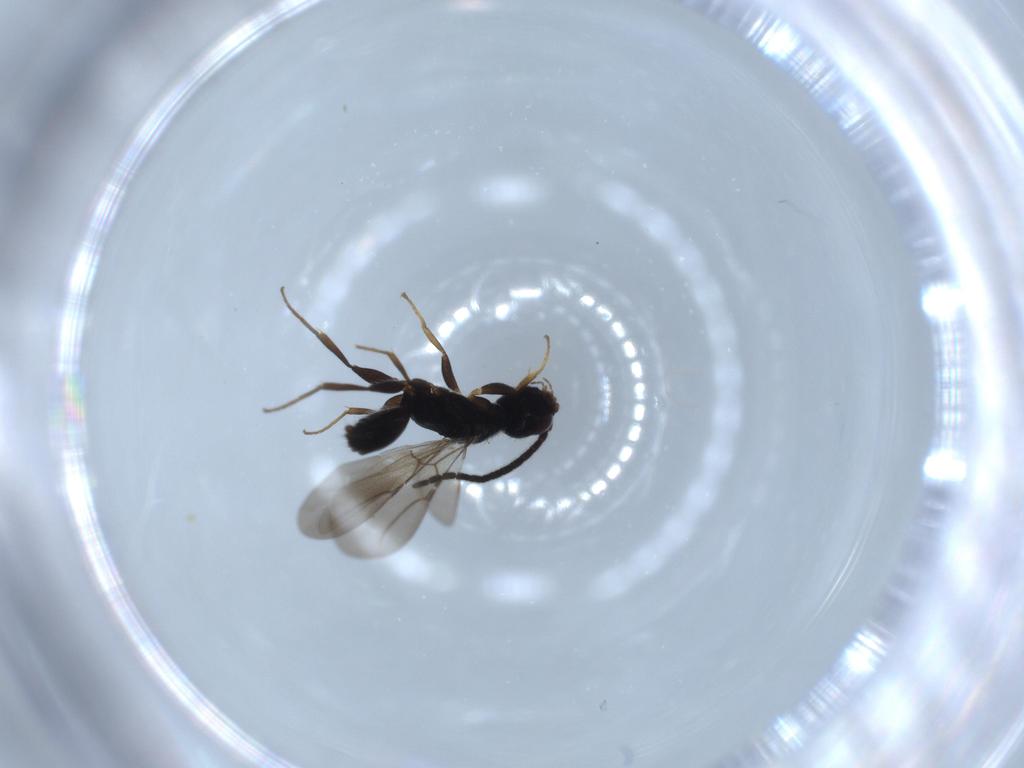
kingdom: Animalia
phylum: Arthropoda
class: Insecta
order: Hymenoptera
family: Bethylidae
